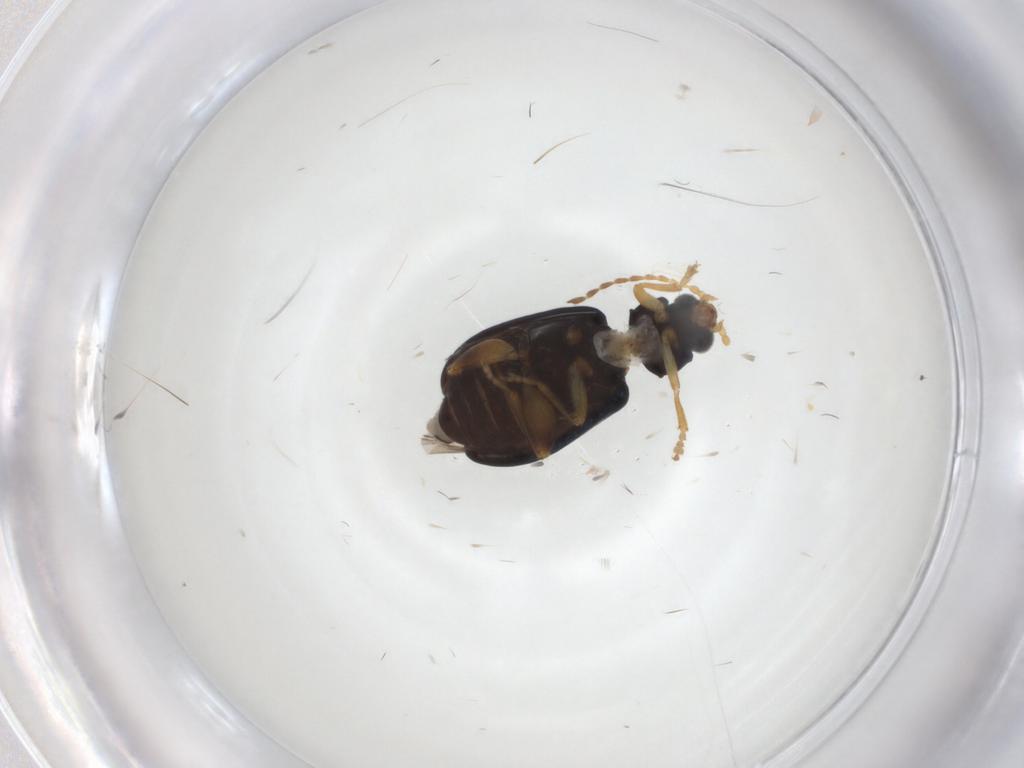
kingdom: Animalia
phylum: Arthropoda
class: Insecta
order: Coleoptera
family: Chrysomelidae
